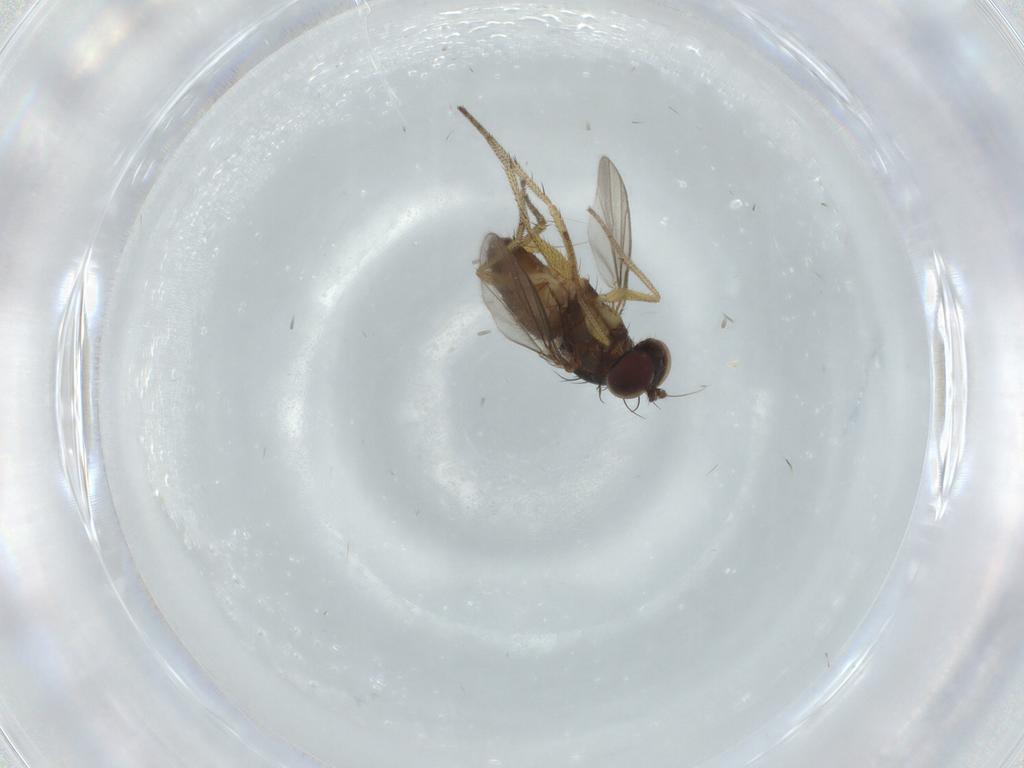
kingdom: Animalia
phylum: Arthropoda
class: Insecta
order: Diptera
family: Dolichopodidae
